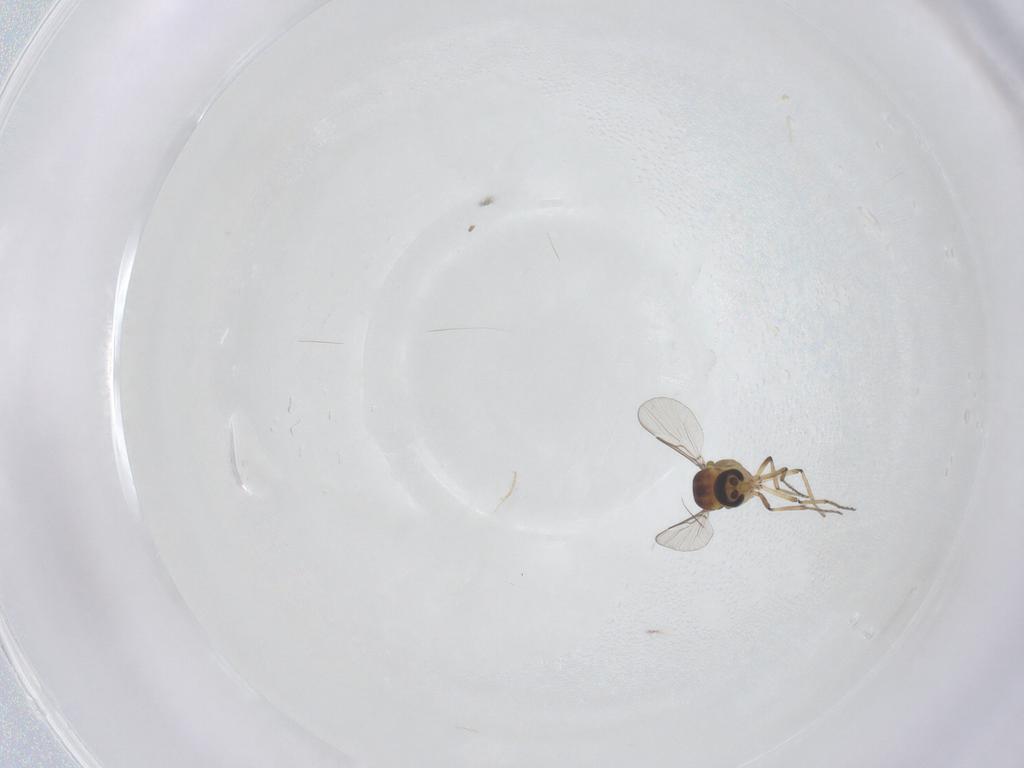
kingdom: Animalia
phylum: Arthropoda
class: Insecta
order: Diptera
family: Ceratopogonidae
